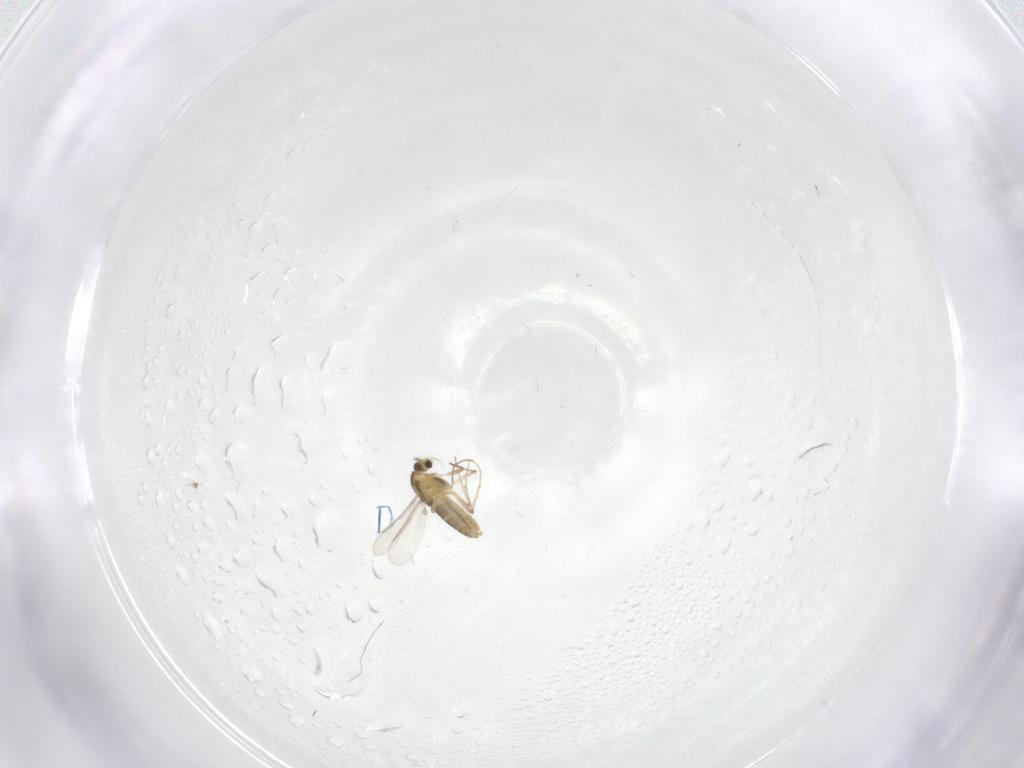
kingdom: Animalia
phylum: Arthropoda
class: Insecta
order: Diptera
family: Chironomidae
